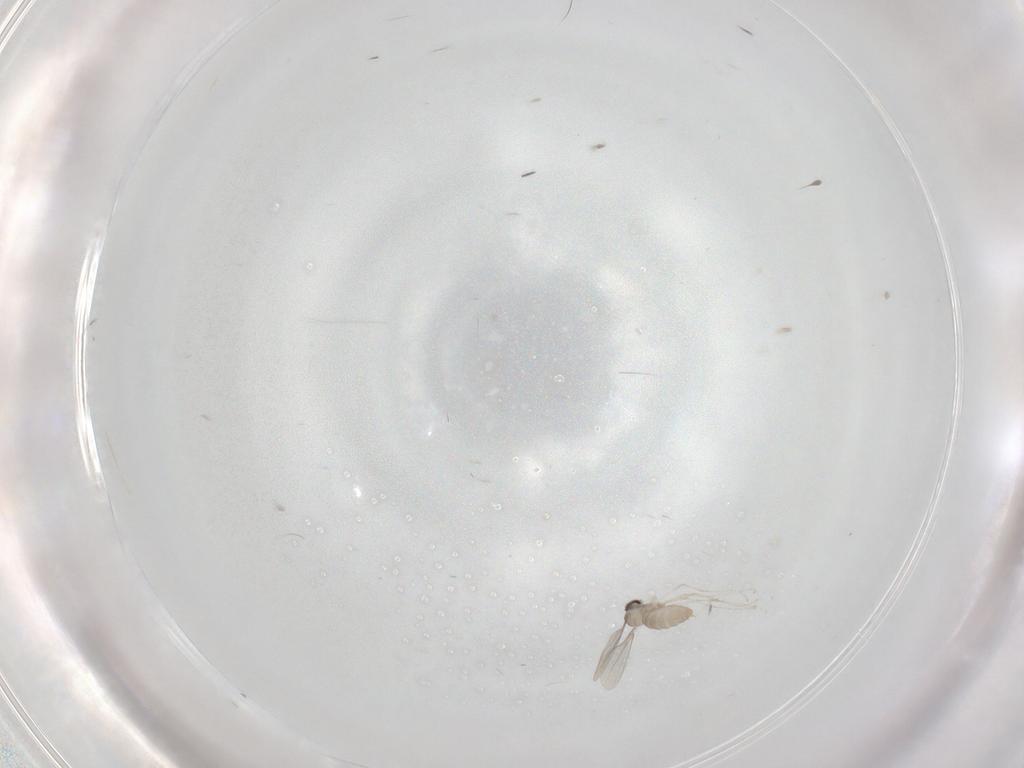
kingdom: Animalia
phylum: Arthropoda
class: Insecta
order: Diptera
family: Cecidomyiidae
